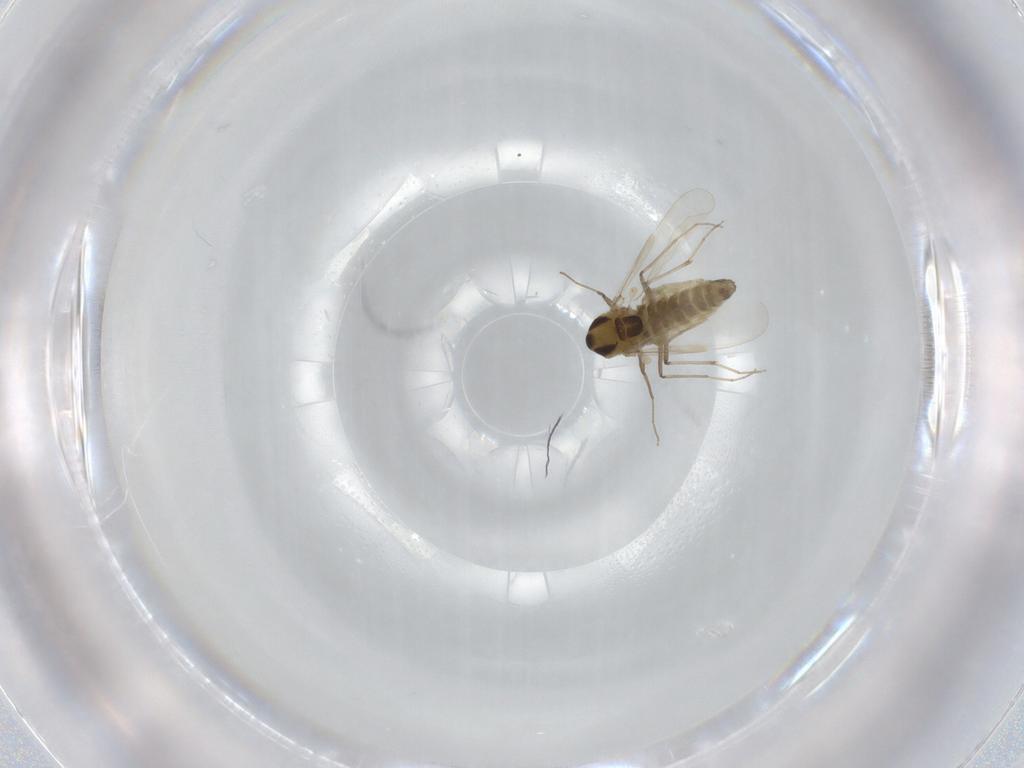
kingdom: Animalia
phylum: Arthropoda
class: Insecta
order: Diptera
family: Chironomidae
